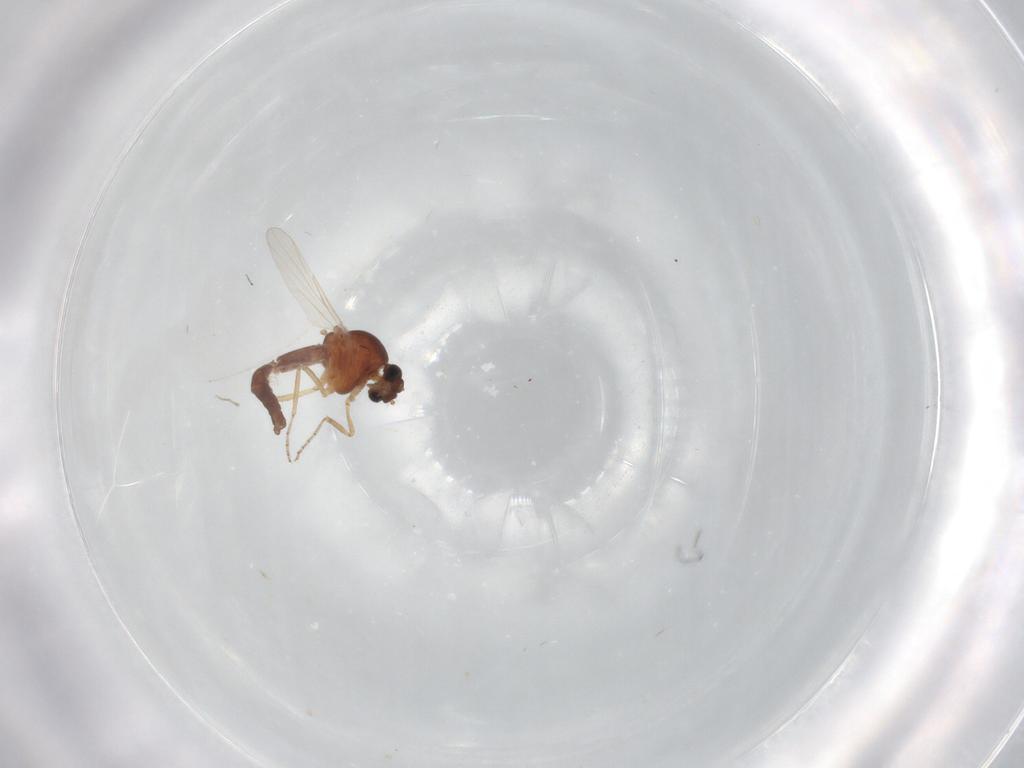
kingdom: Animalia
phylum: Arthropoda
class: Insecta
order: Diptera
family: Ceratopogonidae
